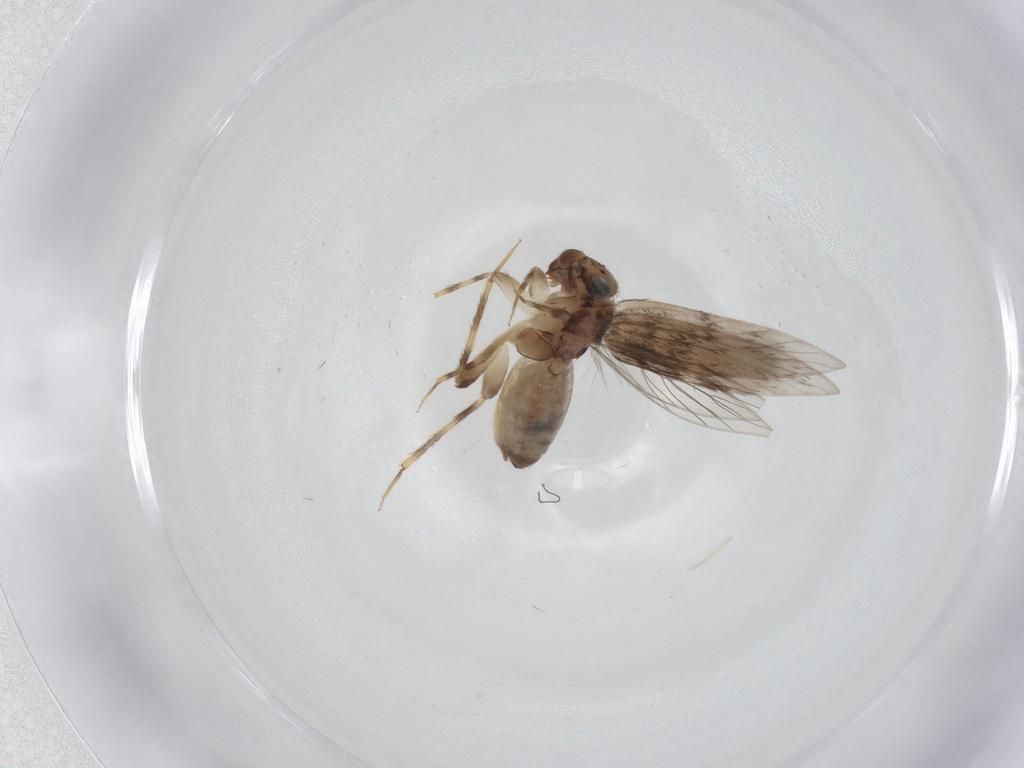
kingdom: Animalia
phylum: Arthropoda
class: Insecta
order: Psocodea
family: Lepidopsocidae
